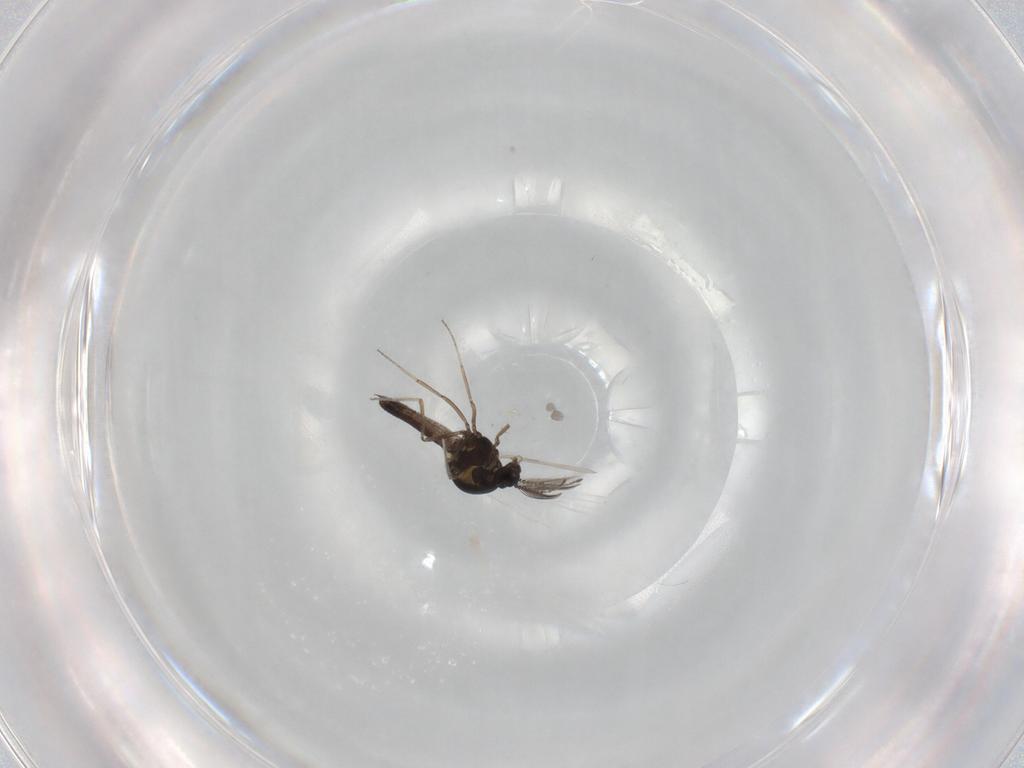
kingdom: Animalia
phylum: Arthropoda
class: Insecta
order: Diptera
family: Ceratopogonidae
